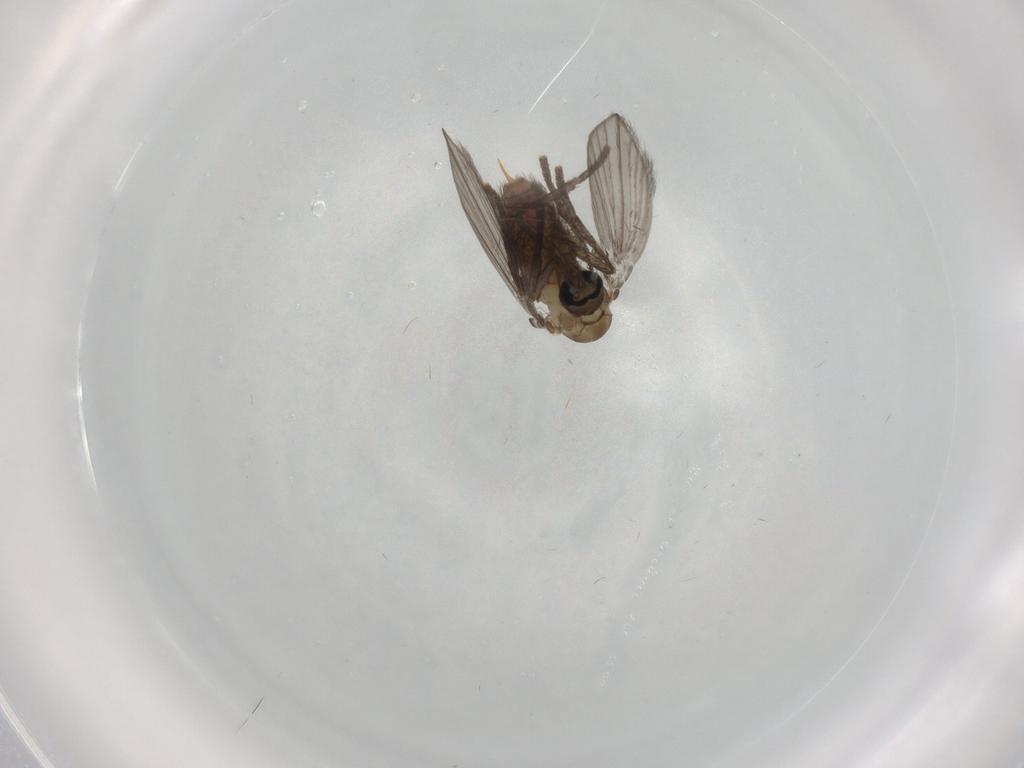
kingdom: Animalia
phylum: Arthropoda
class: Insecta
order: Diptera
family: Psychodidae
